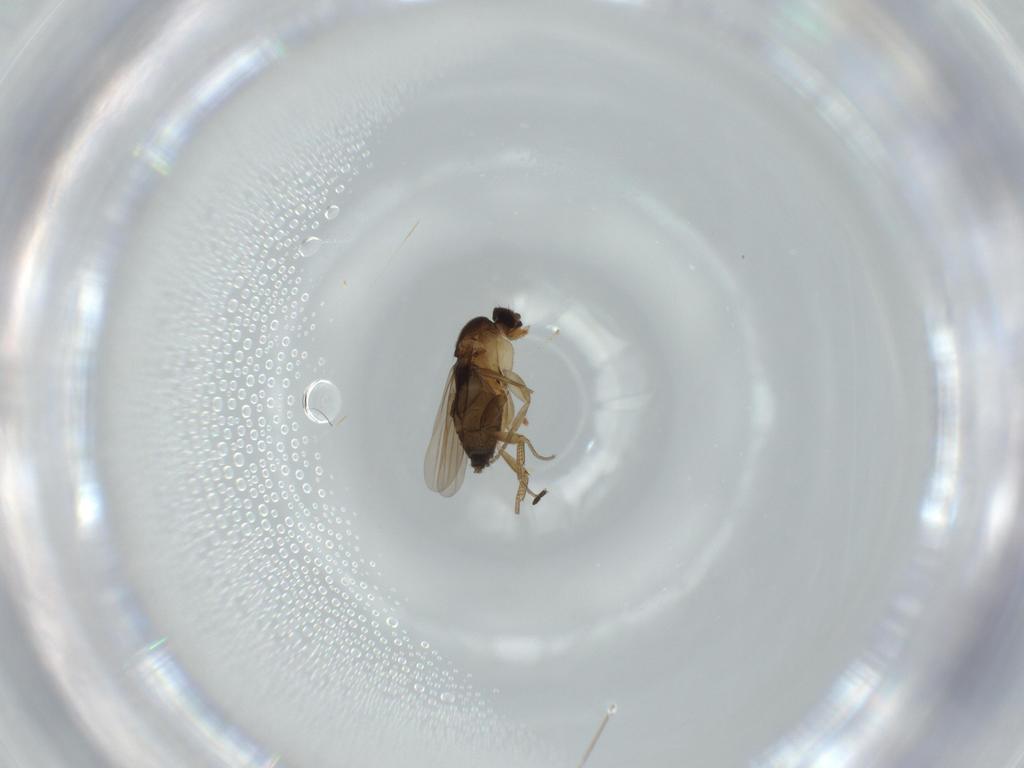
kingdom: Animalia
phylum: Arthropoda
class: Insecta
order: Diptera
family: Phoridae
